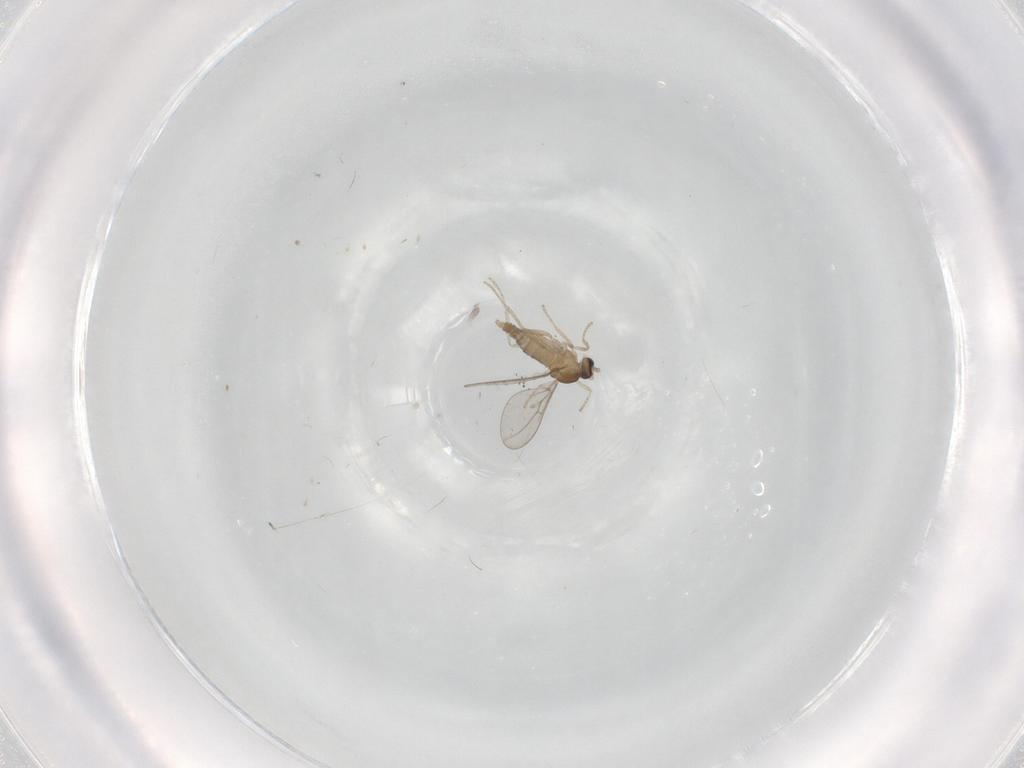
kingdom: Animalia
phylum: Arthropoda
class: Insecta
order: Diptera
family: Cecidomyiidae
